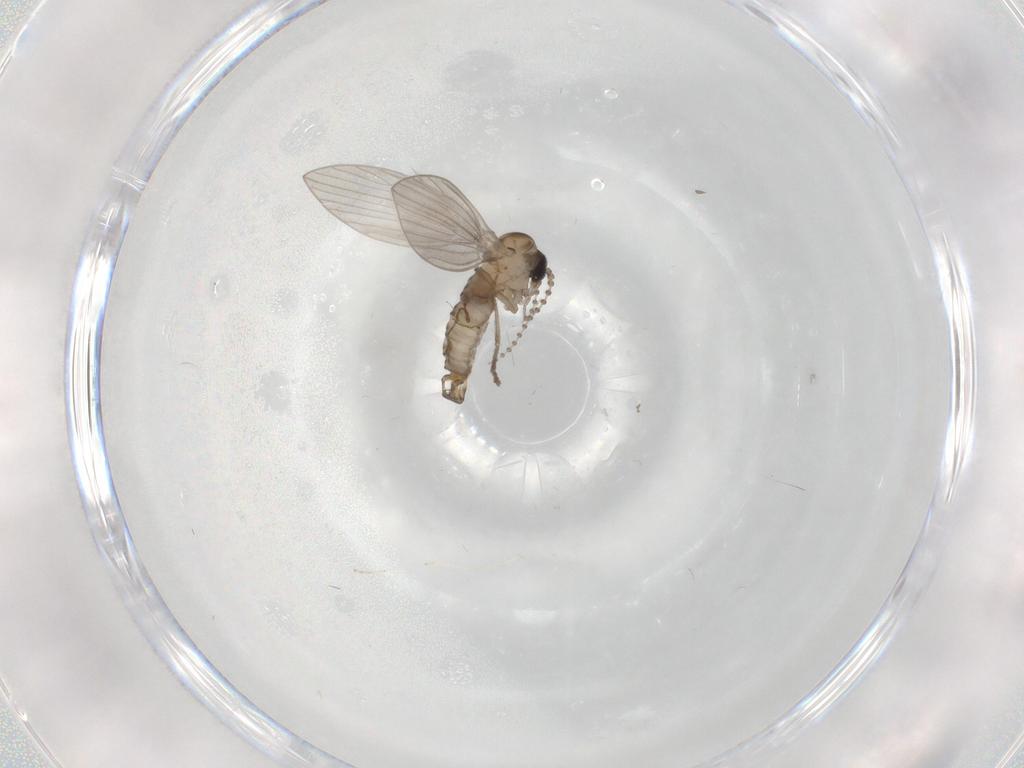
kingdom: Animalia
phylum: Arthropoda
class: Insecta
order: Diptera
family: Psychodidae
